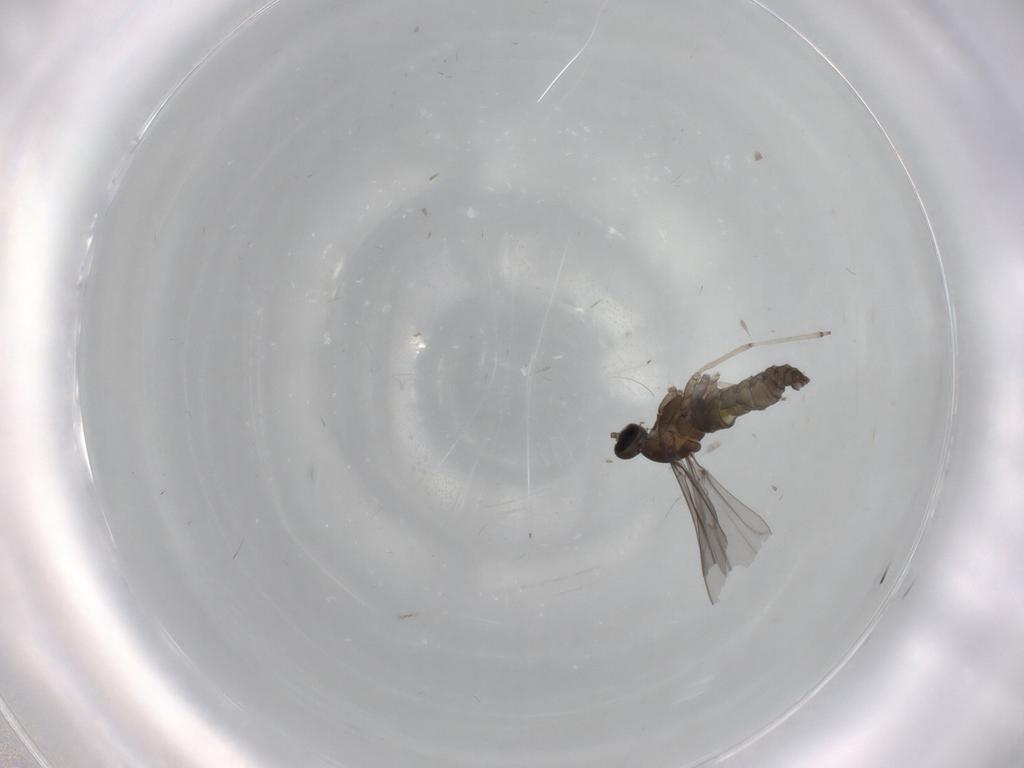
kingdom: Animalia
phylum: Arthropoda
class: Insecta
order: Diptera
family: Cecidomyiidae
